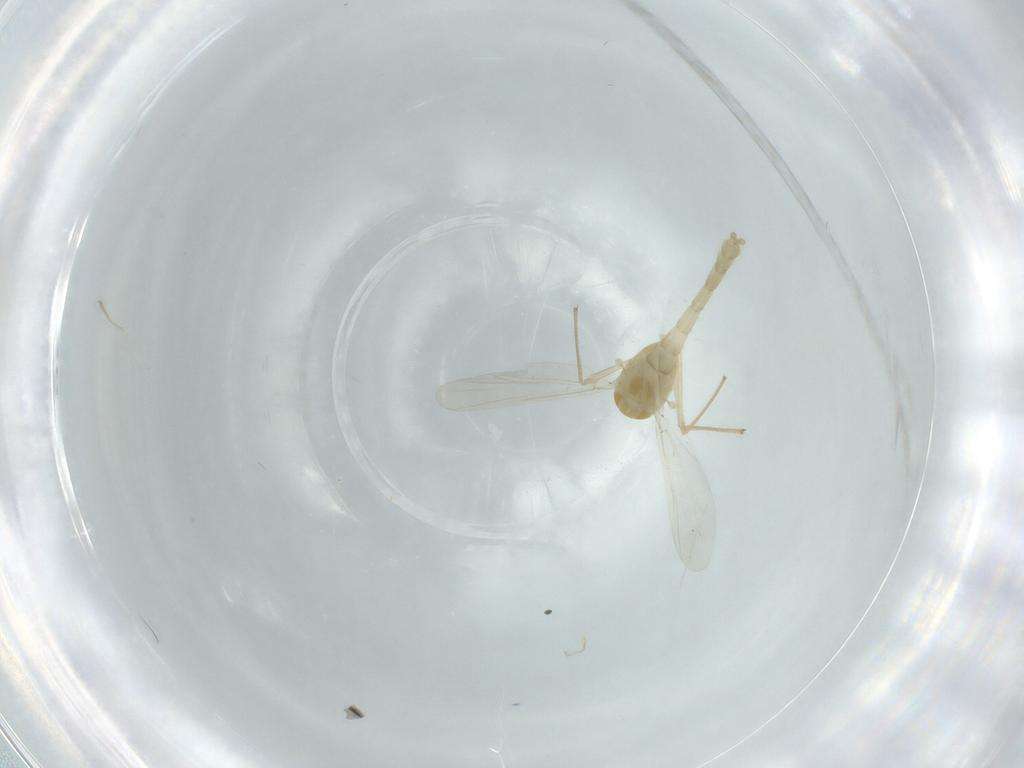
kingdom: Animalia
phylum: Arthropoda
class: Insecta
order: Diptera
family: Chironomidae
